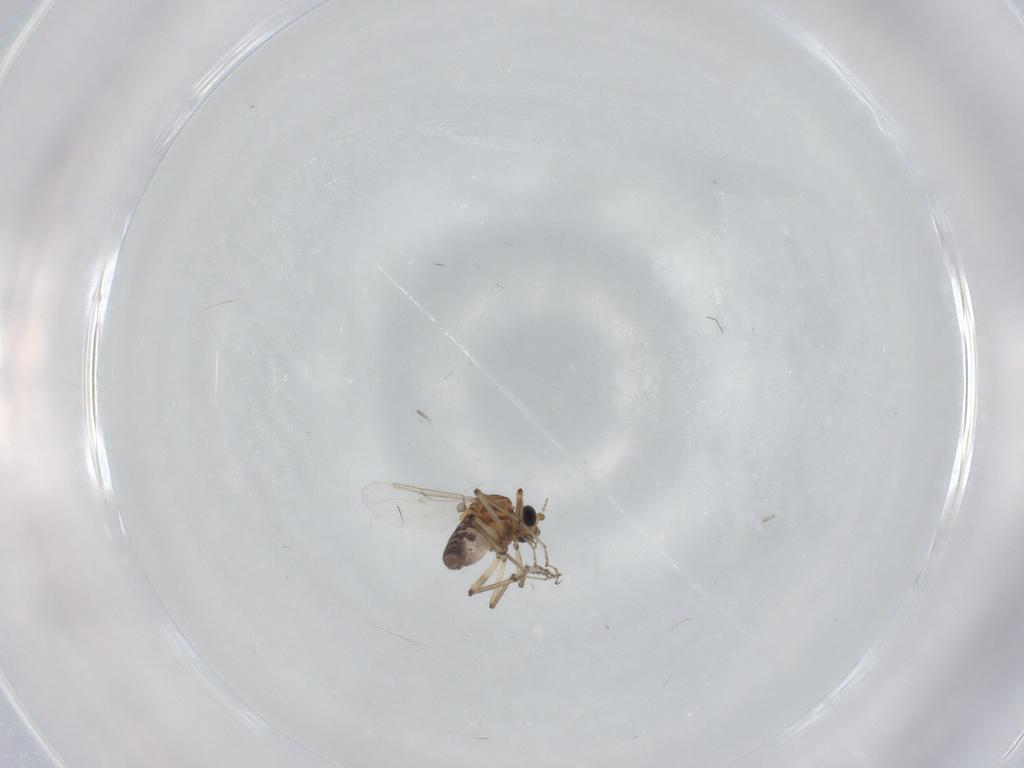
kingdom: Animalia
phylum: Arthropoda
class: Insecta
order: Diptera
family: Ceratopogonidae
